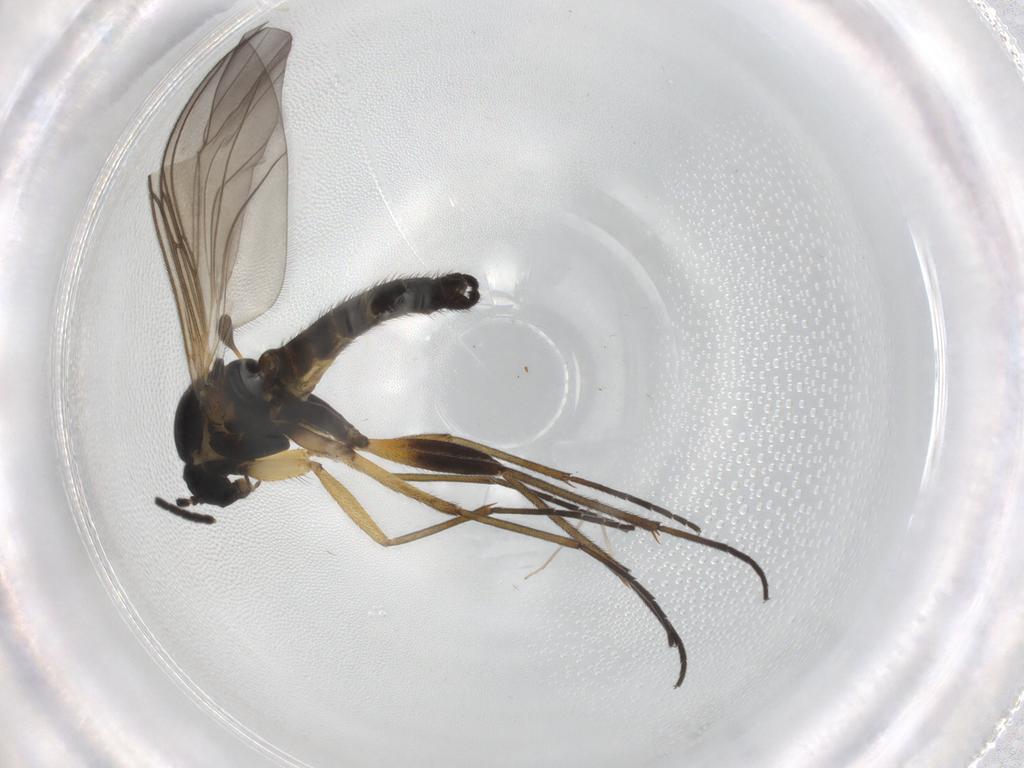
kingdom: Animalia
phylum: Arthropoda
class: Insecta
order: Diptera
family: Sciaridae
